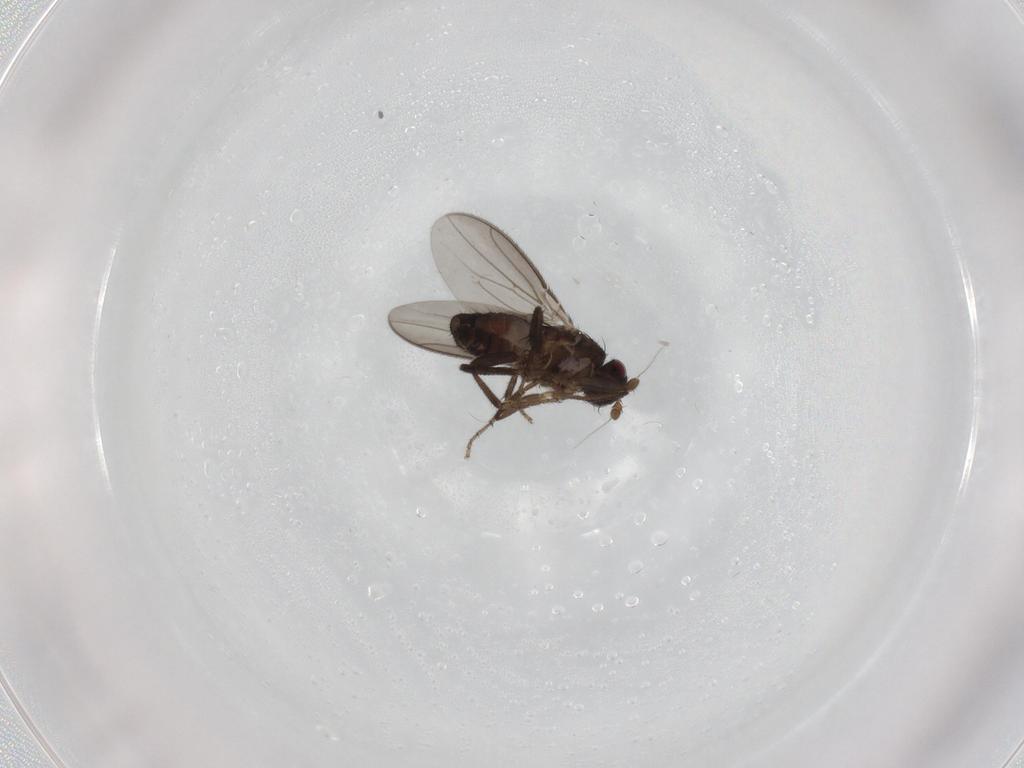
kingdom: Animalia
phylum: Arthropoda
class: Insecta
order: Diptera
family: Sphaeroceridae
